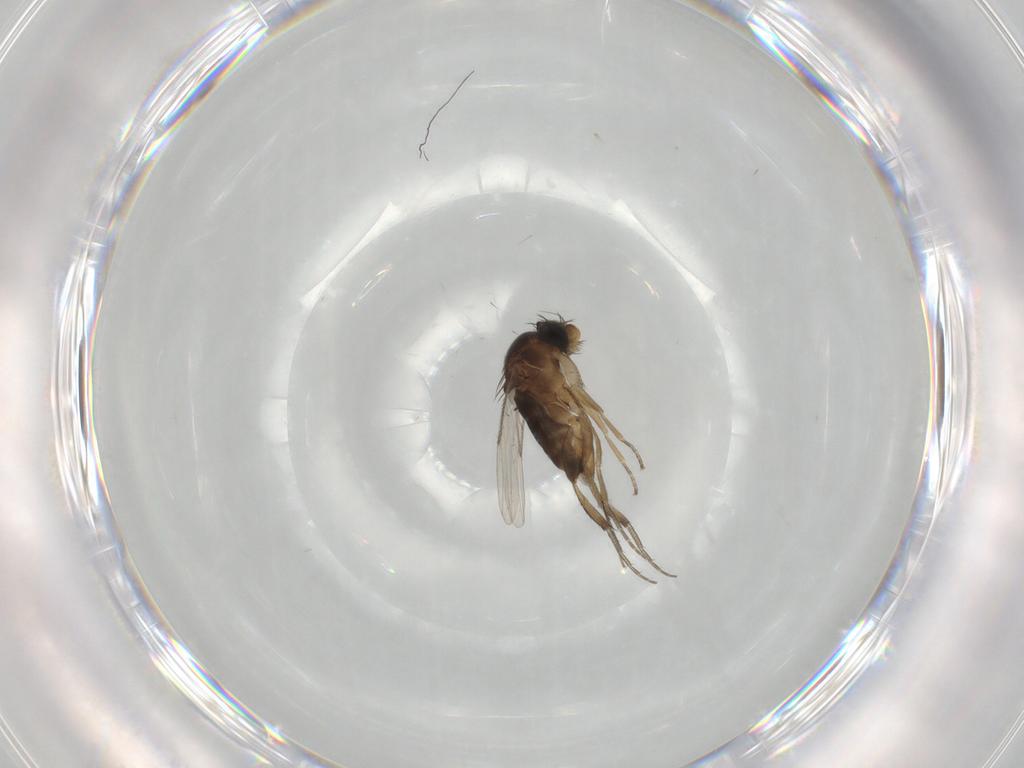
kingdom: Animalia
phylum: Arthropoda
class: Insecta
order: Diptera
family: Phoridae
